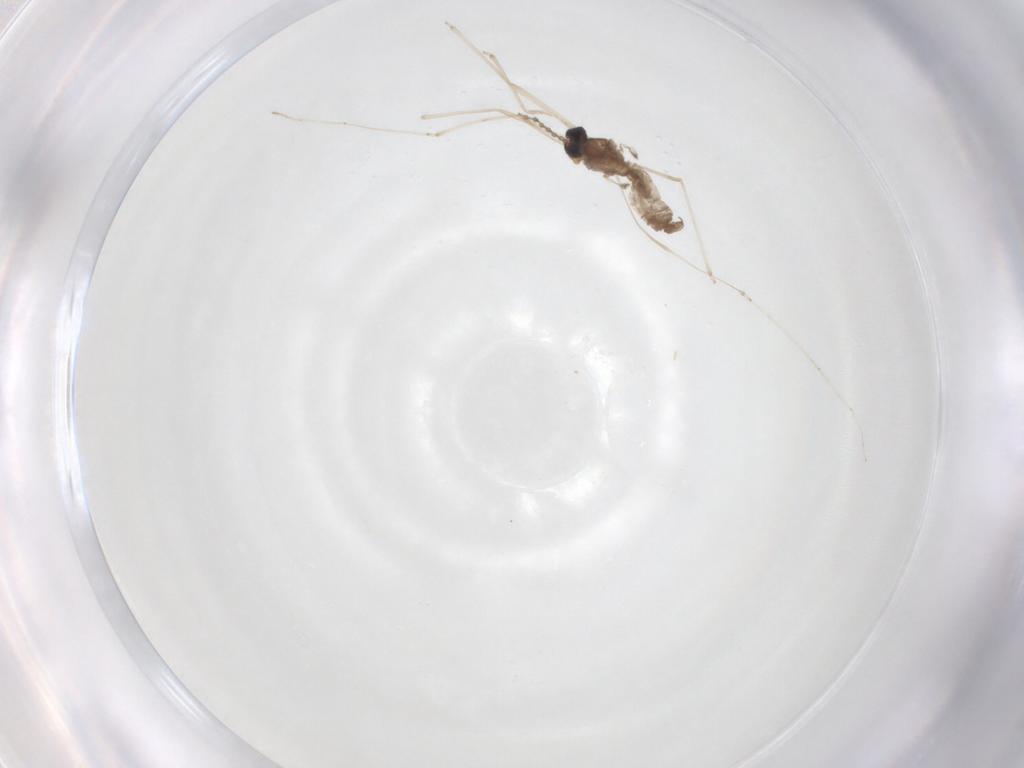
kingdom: Animalia
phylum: Arthropoda
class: Insecta
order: Diptera
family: Cecidomyiidae
